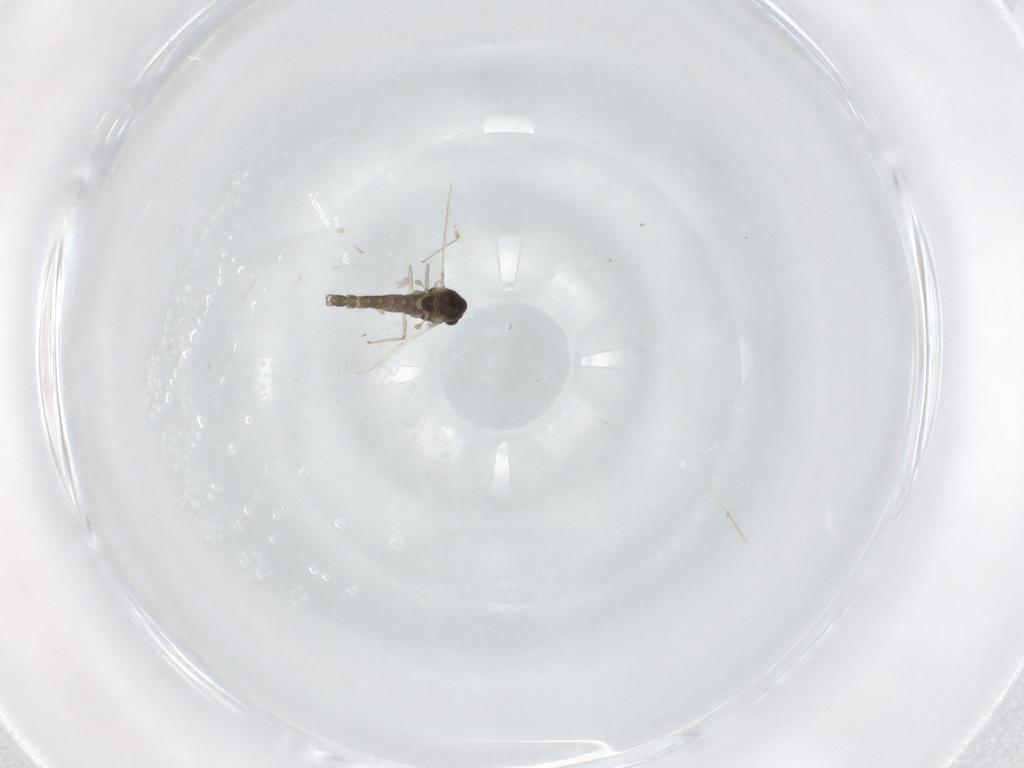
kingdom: Animalia
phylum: Arthropoda
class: Insecta
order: Diptera
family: Chironomidae
